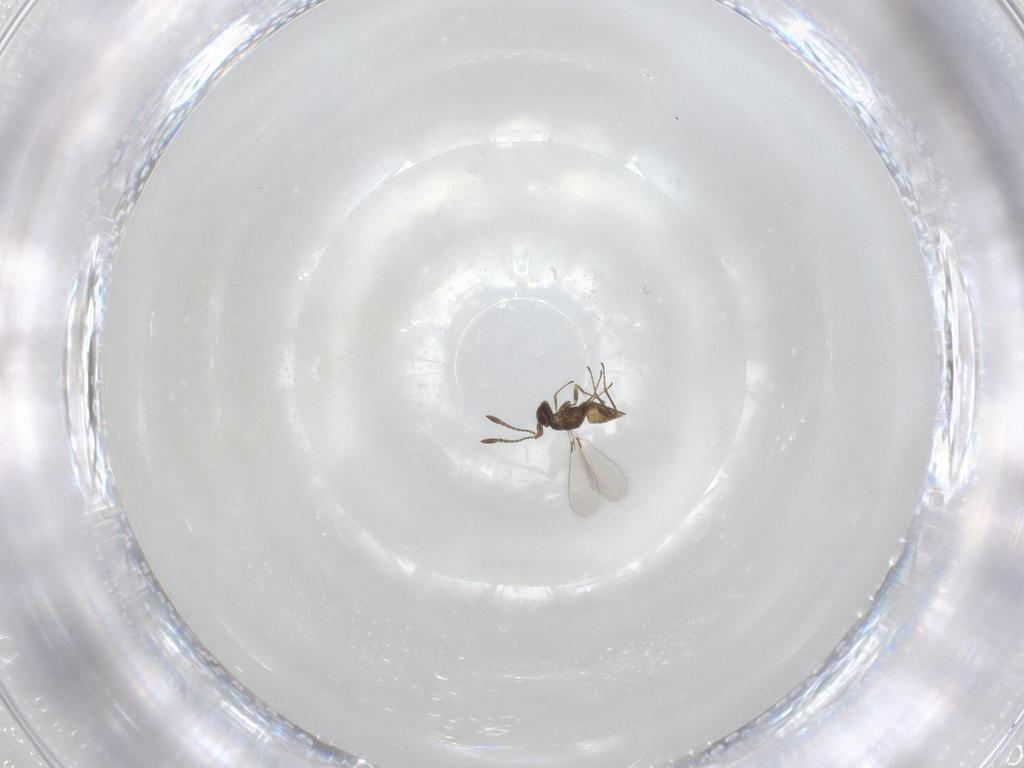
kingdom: Animalia
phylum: Arthropoda
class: Insecta
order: Hymenoptera
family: Mymaridae
